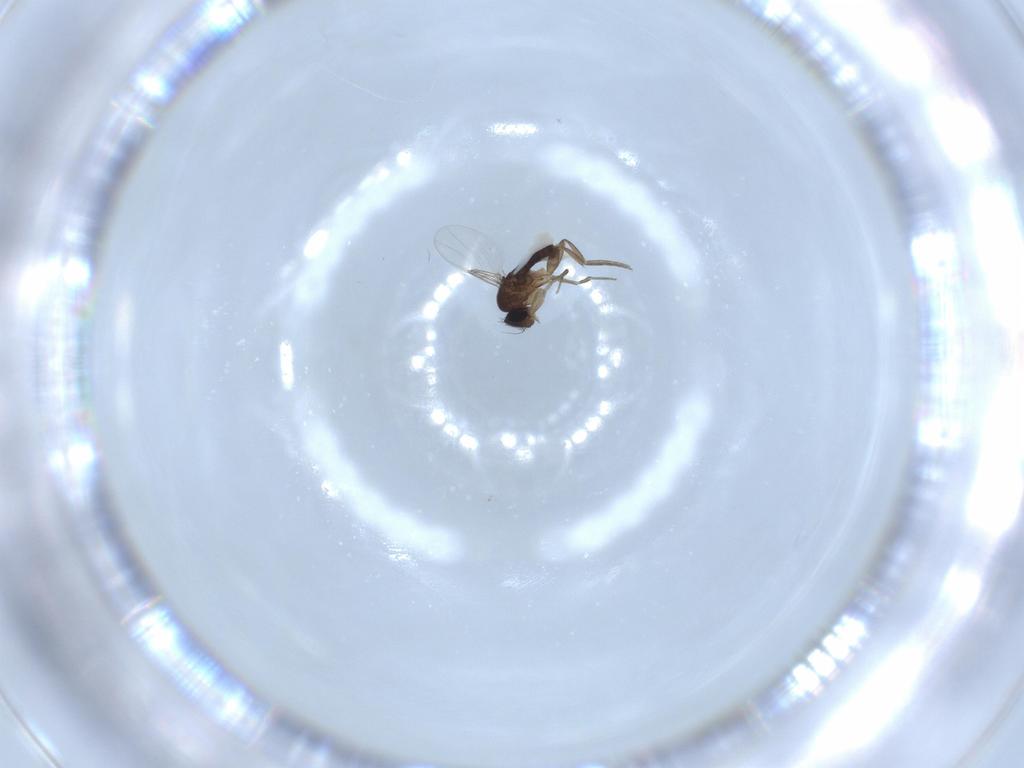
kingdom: Animalia
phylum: Arthropoda
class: Insecta
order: Diptera
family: Phoridae
